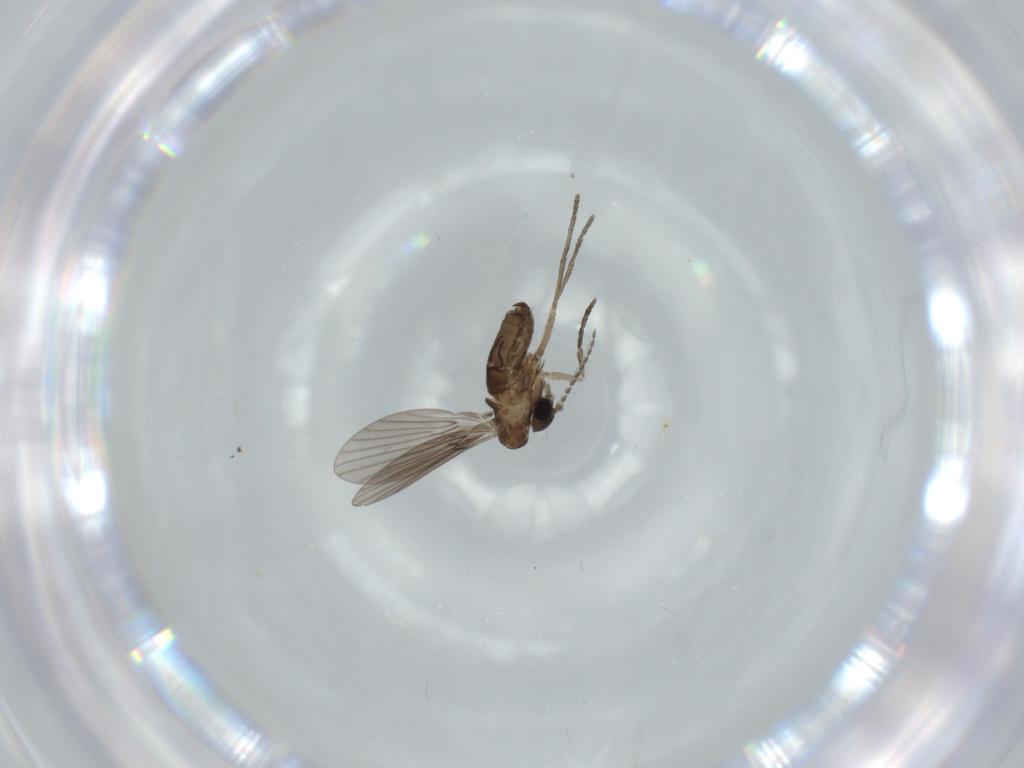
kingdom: Animalia
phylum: Arthropoda
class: Insecta
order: Diptera
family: Psychodidae
